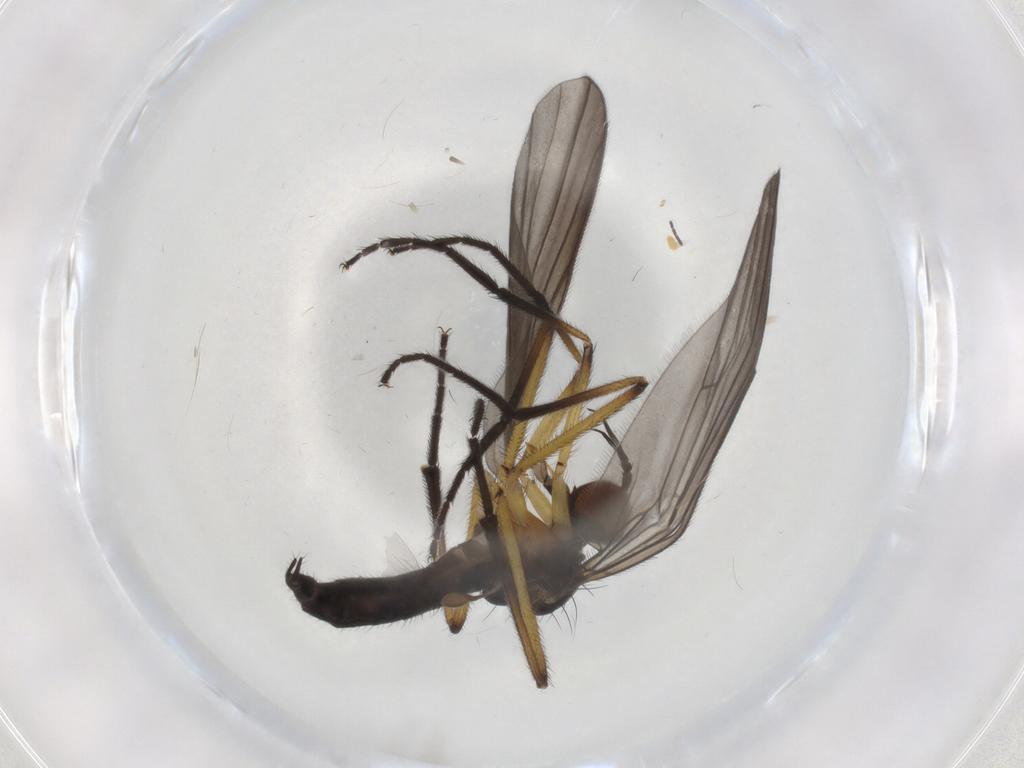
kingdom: Animalia
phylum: Arthropoda
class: Insecta
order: Diptera
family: Empididae
